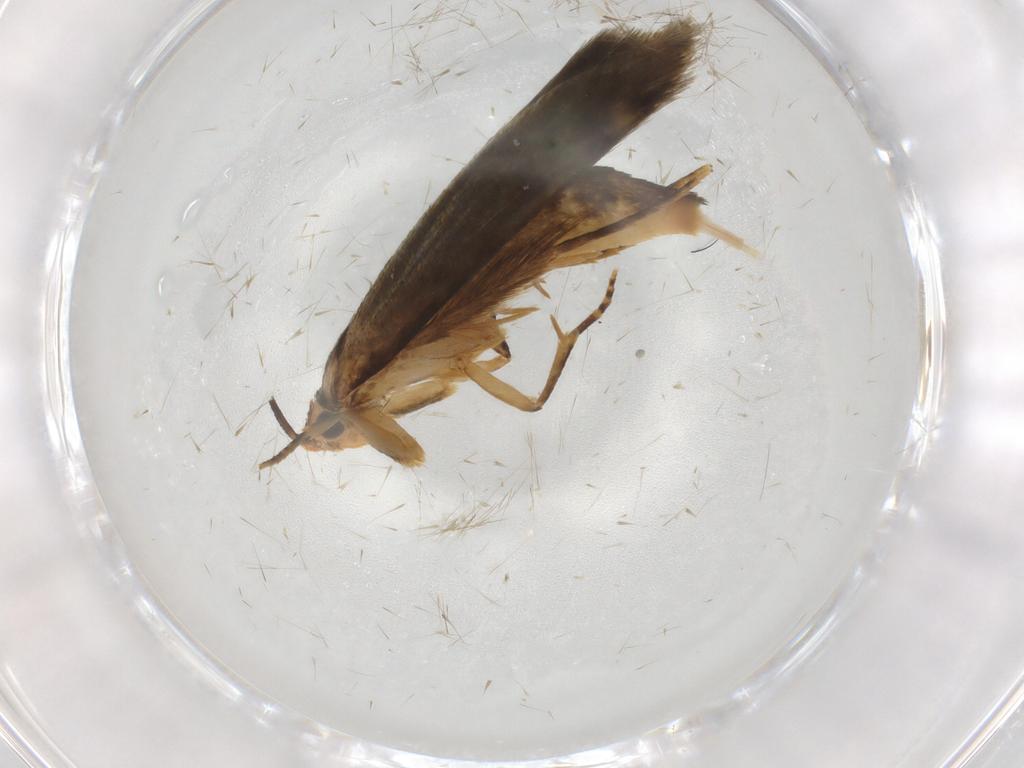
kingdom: Animalia
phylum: Arthropoda
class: Insecta
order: Lepidoptera
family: Tineidae
